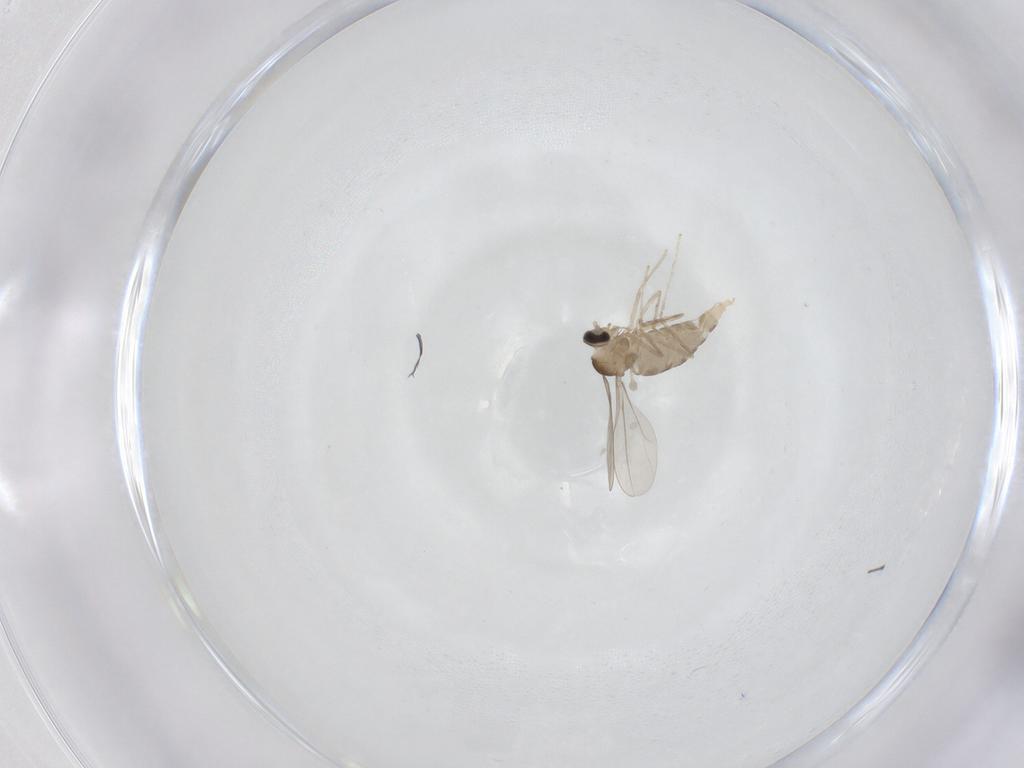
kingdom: Animalia
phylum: Arthropoda
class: Insecta
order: Diptera
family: Cecidomyiidae
